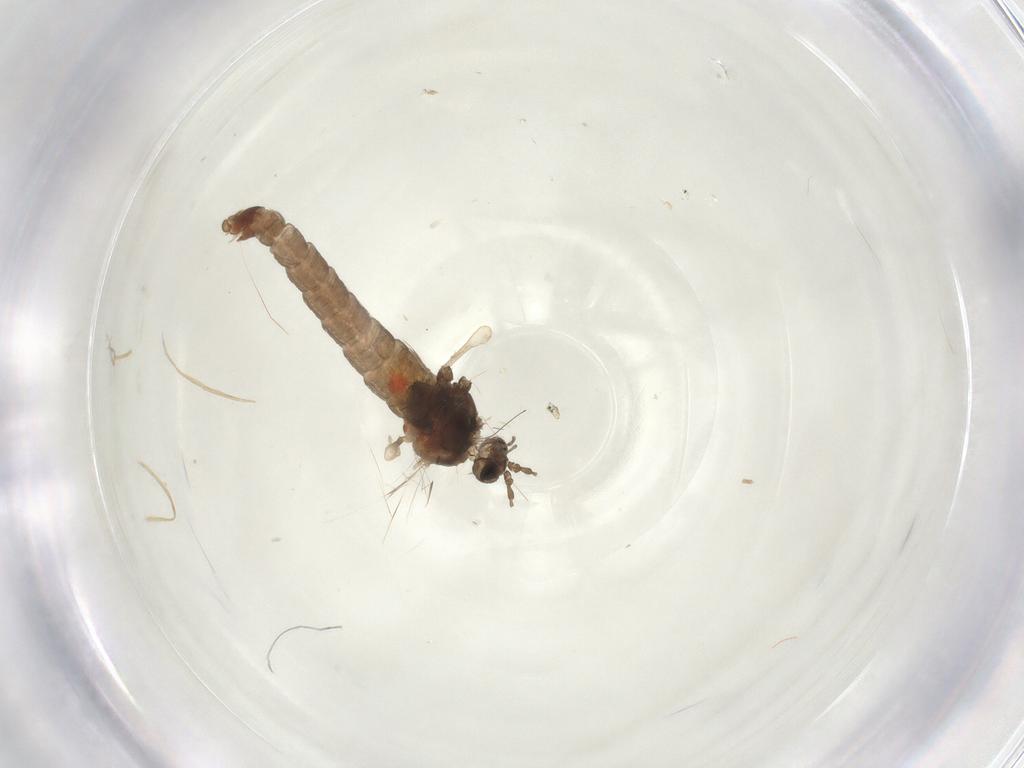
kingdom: Animalia
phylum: Arthropoda
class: Insecta
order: Diptera
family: Cecidomyiidae
